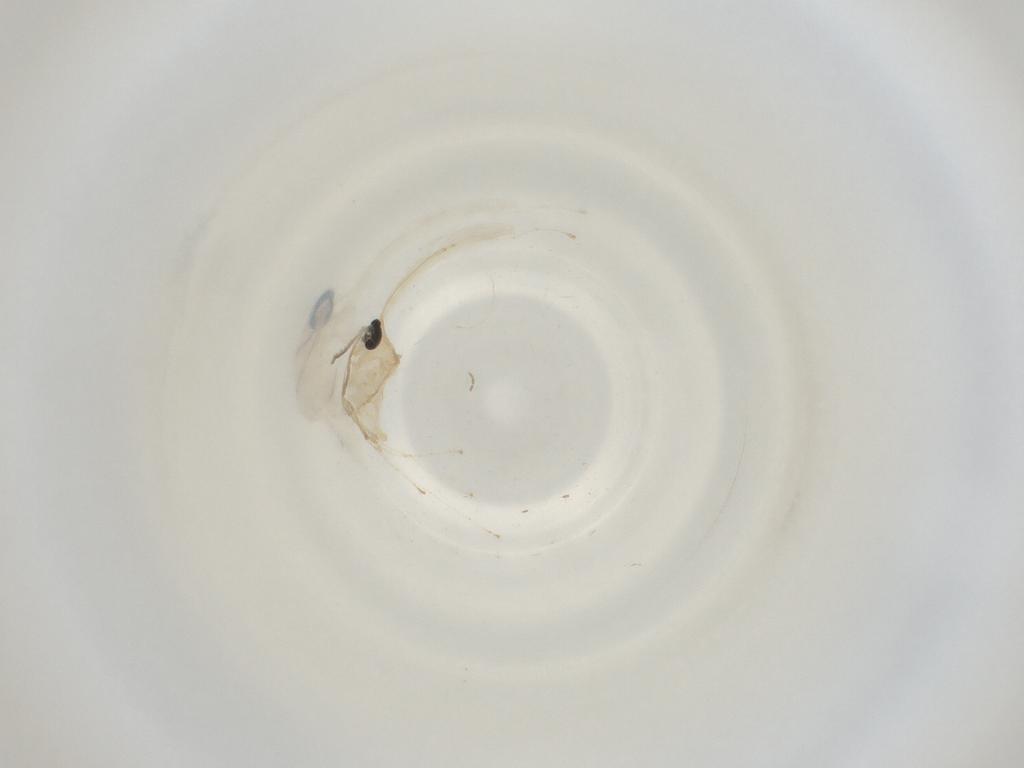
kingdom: Animalia
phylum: Arthropoda
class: Insecta
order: Diptera
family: Cecidomyiidae
